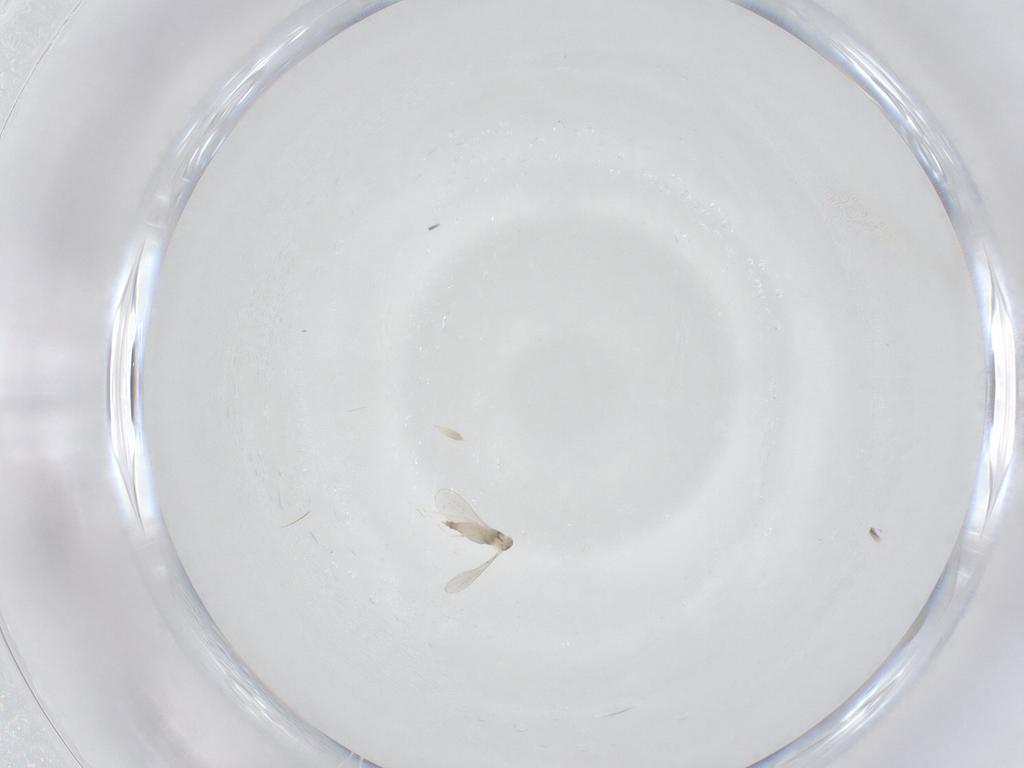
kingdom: Animalia
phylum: Arthropoda
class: Insecta
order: Diptera
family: Cecidomyiidae
